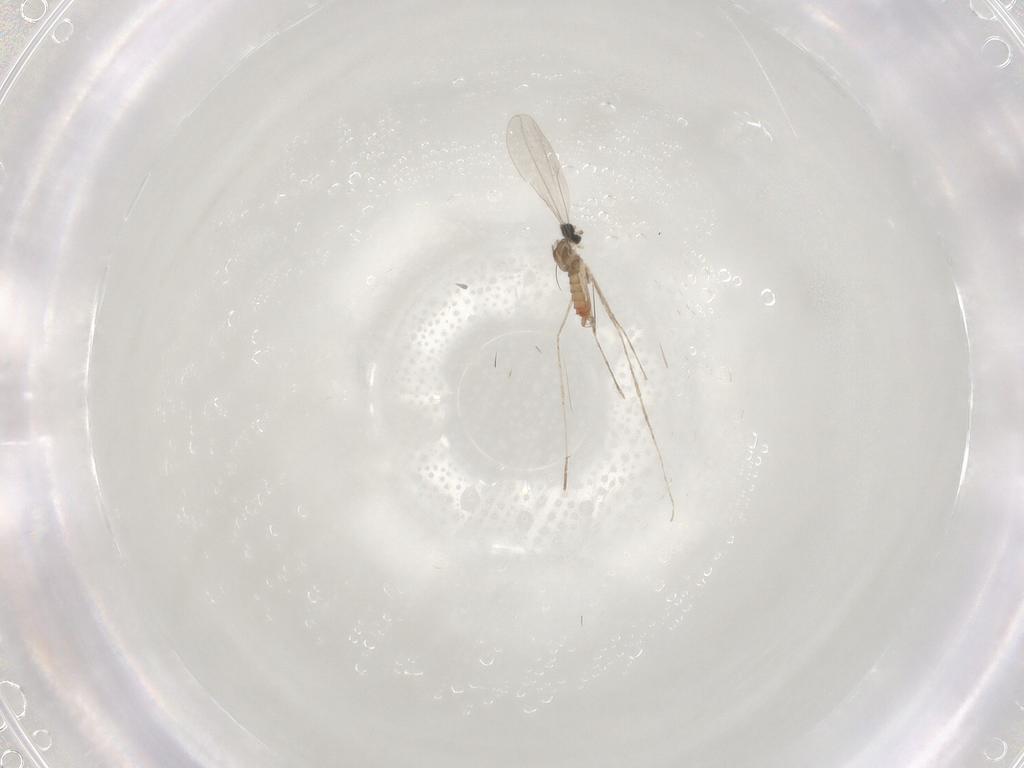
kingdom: Animalia
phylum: Arthropoda
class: Insecta
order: Diptera
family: Cecidomyiidae
